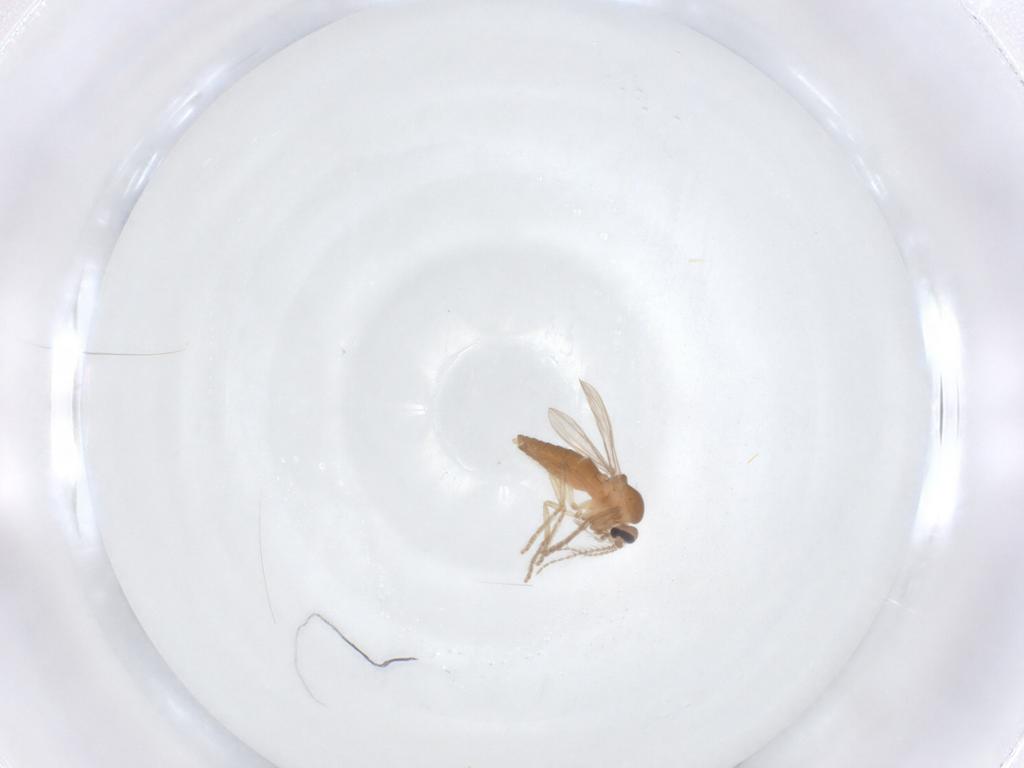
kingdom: Animalia
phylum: Arthropoda
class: Insecta
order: Diptera
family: Ceratopogonidae
